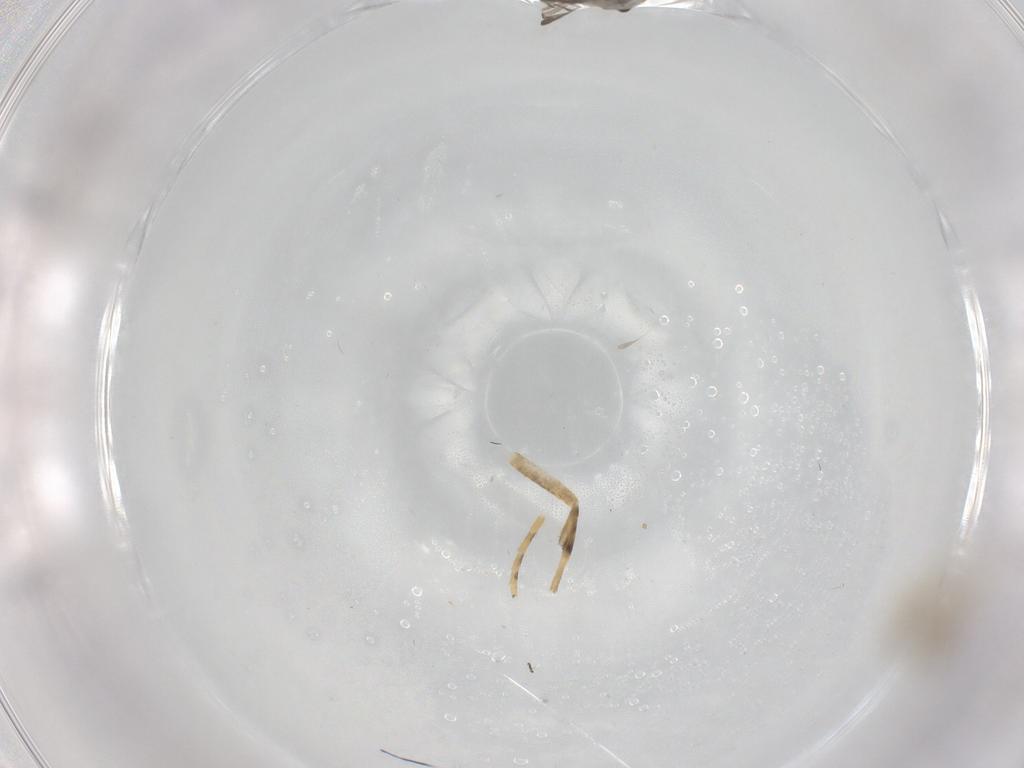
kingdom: Animalia
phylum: Arthropoda
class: Insecta
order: Diptera
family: Ceratopogonidae
